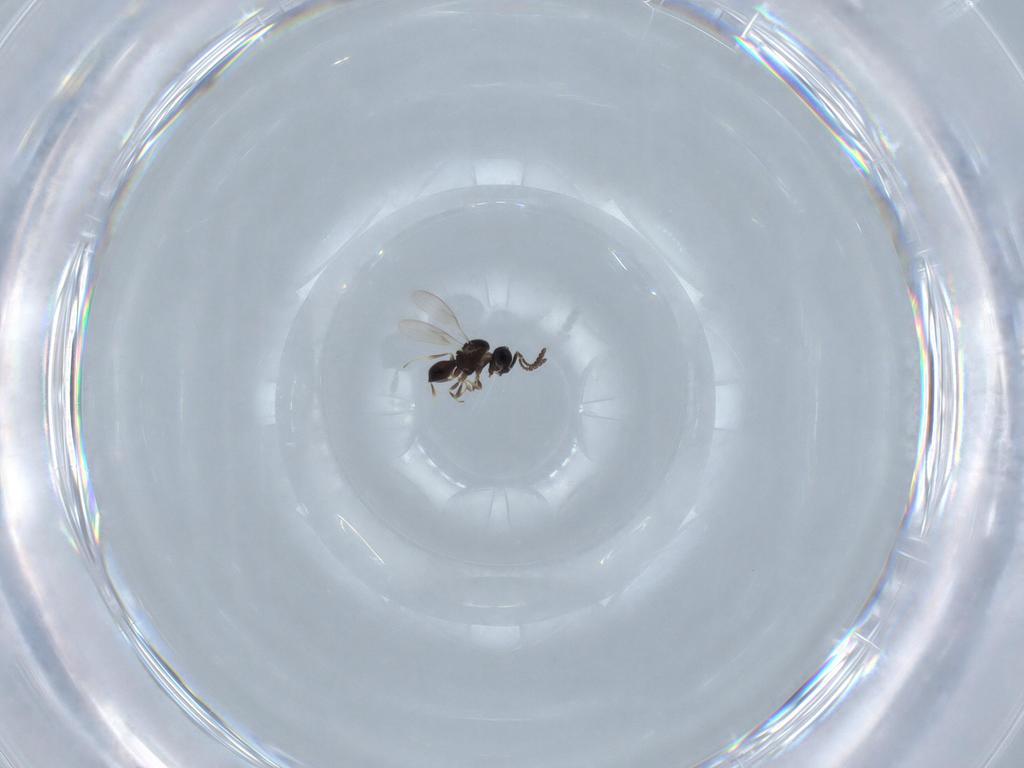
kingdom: Animalia
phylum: Arthropoda
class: Insecta
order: Hymenoptera
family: Scelionidae
